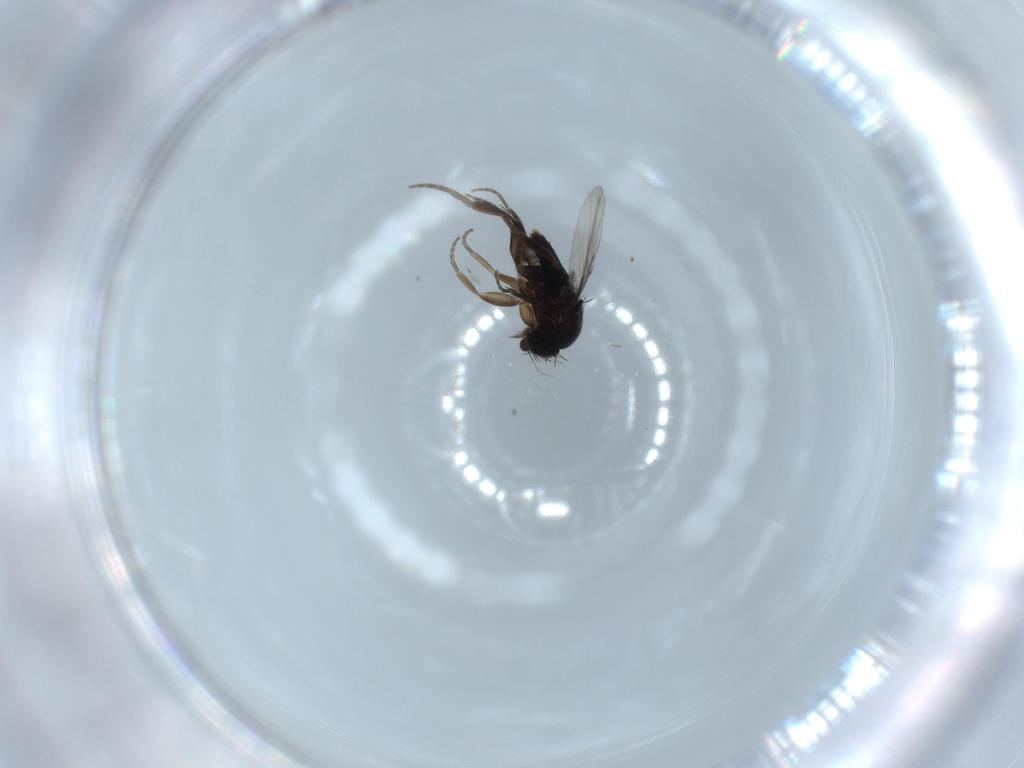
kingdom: Animalia
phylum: Arthropoda
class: Insecta
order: Diptera
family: Phoridae
